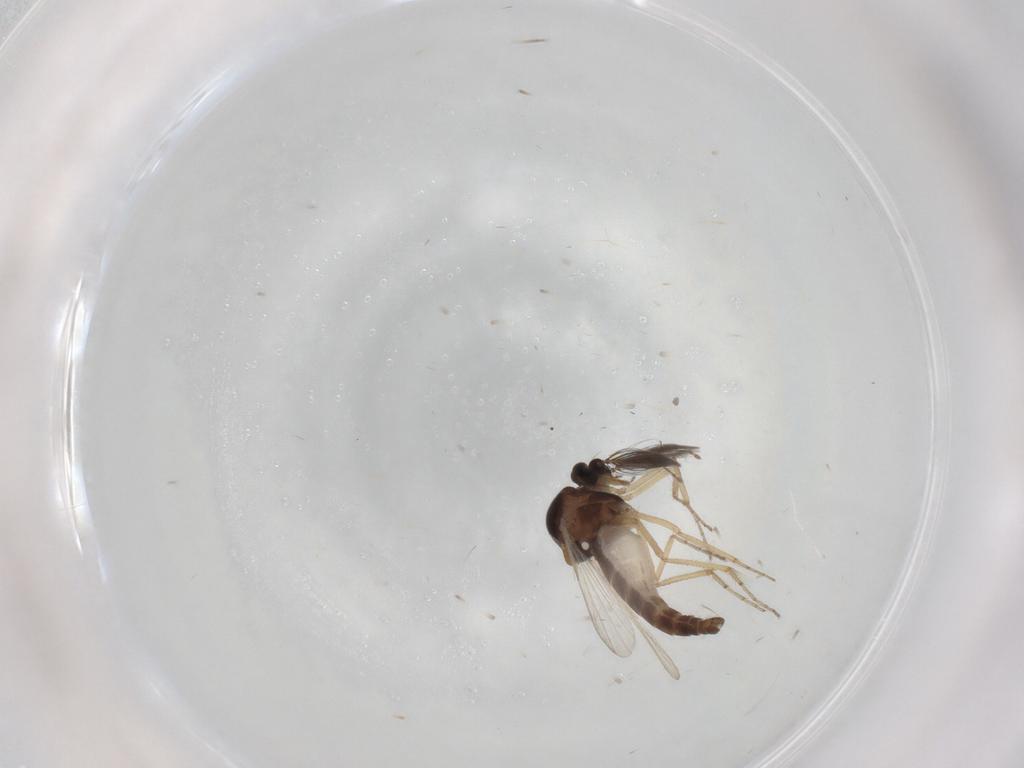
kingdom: Animalia
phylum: Arthropoda
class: Insecta
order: Diptera
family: Ceratopogonidae
